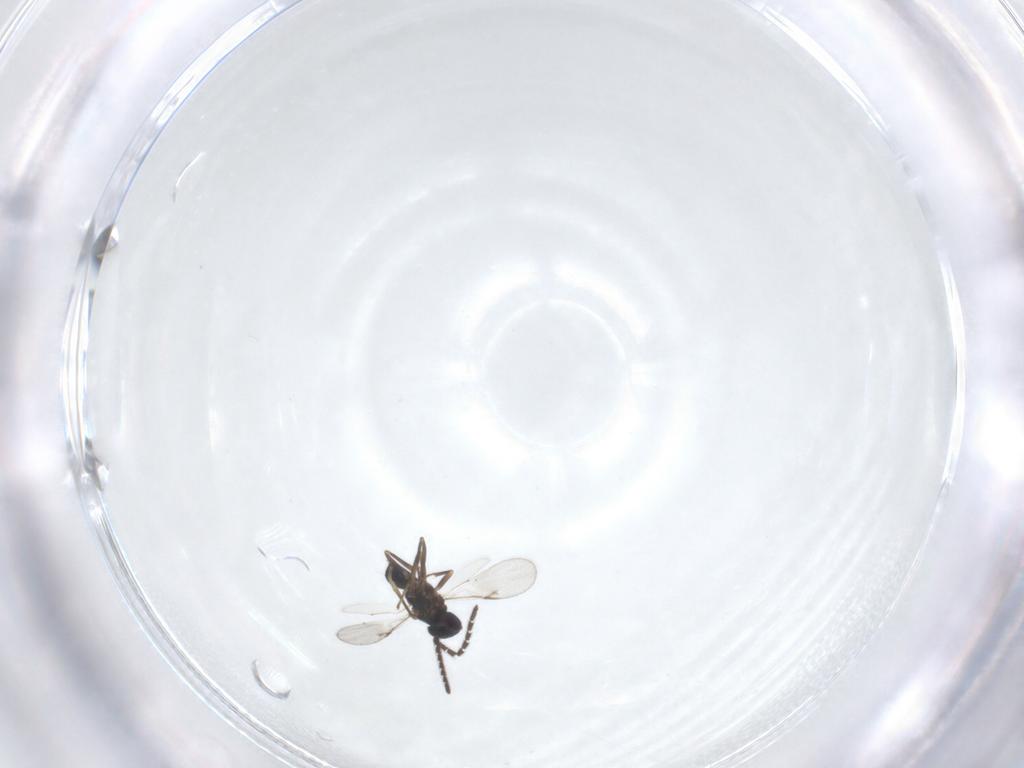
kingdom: Animalia
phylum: Arthropoda
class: Insecta
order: Hymenoptera
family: Encyrtidae
